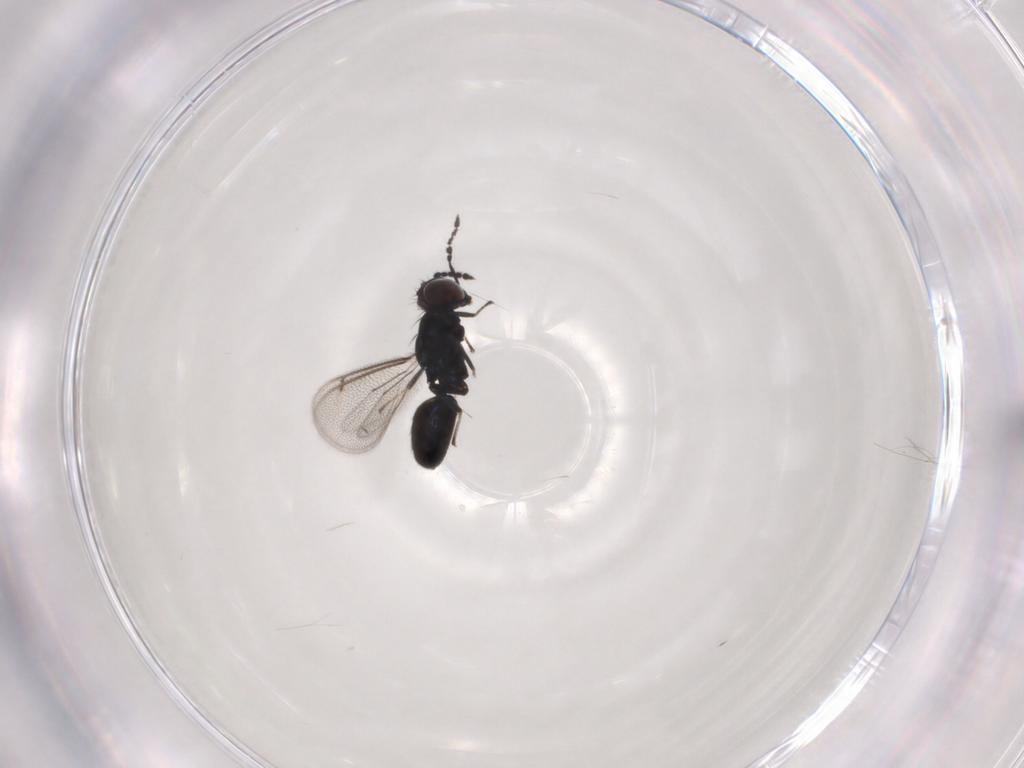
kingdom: Animalia
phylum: Arthropoda
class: Insecta
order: Hymenoptera
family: Eulophidae
